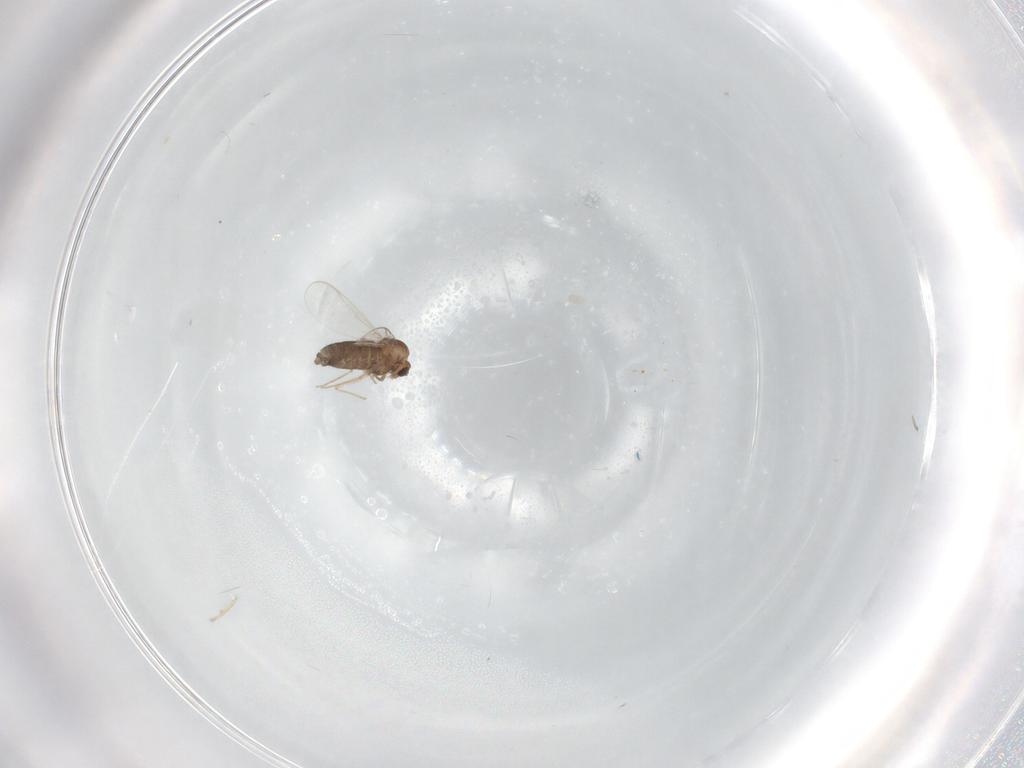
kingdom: Animalia
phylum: Arthropoda
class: Insecta
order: Diptera
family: Chironomidae
